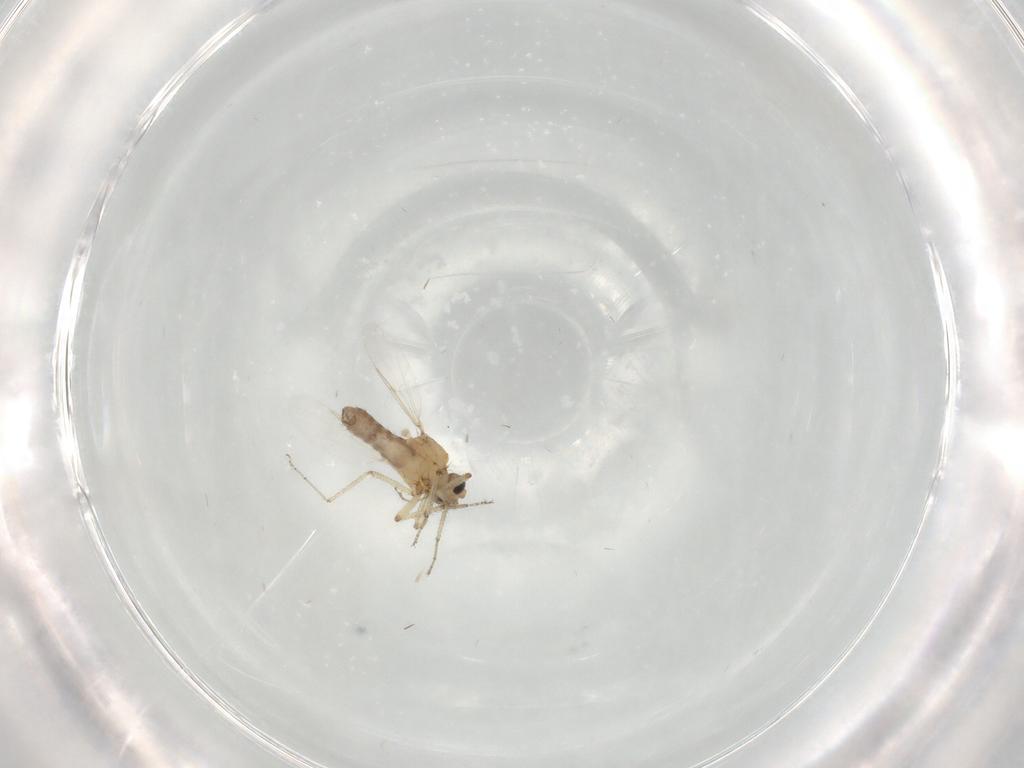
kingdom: Animalia
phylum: Arthropoda
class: Insecta
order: Diptera
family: Ceratopogonidae
